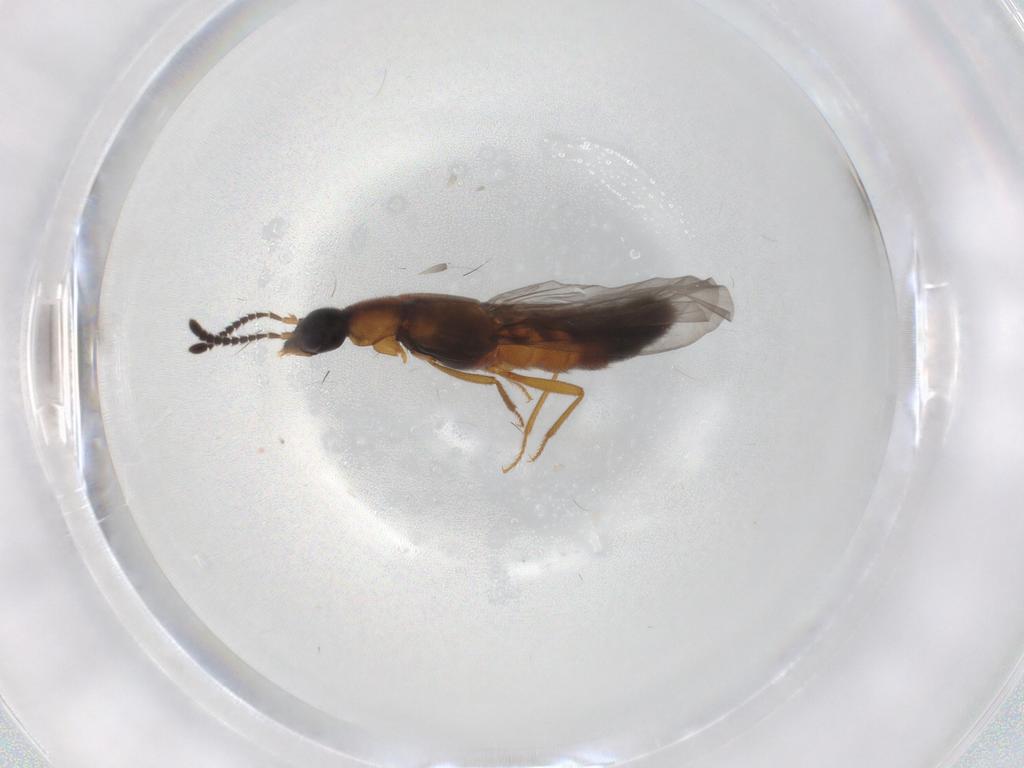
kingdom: Animalia
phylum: Arthropoda
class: Insecta
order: Coleoptera
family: Staphylinidae
